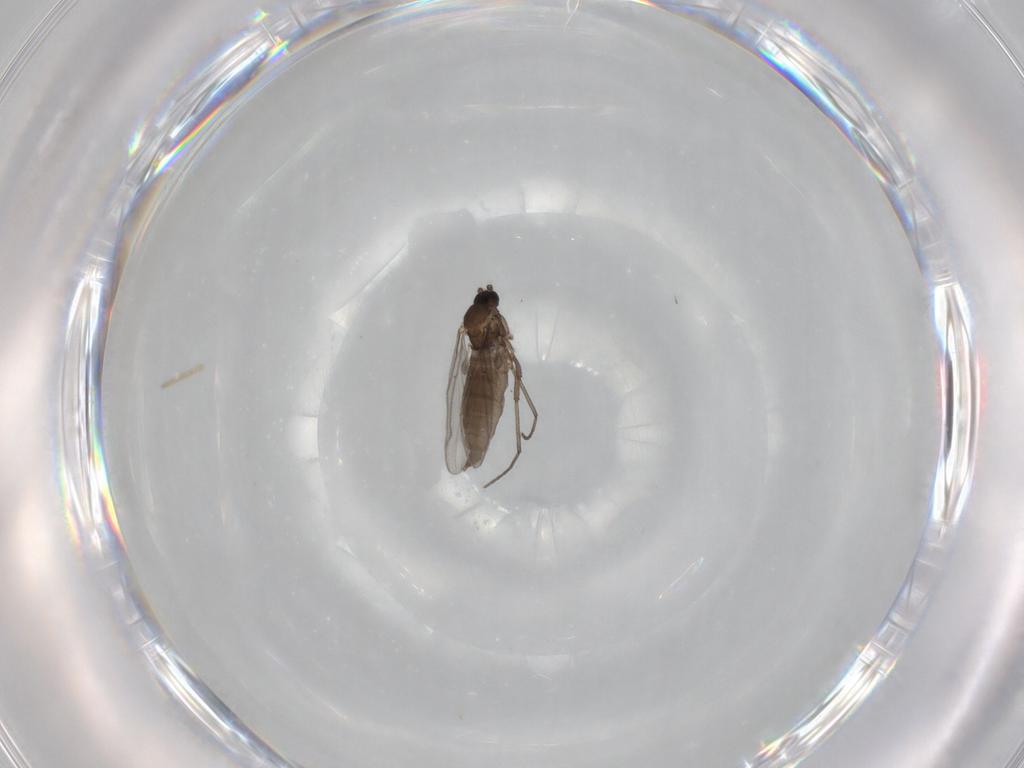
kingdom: Animalia
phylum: Arthropoda
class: Insecta
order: Diptera
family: Sciaridae
